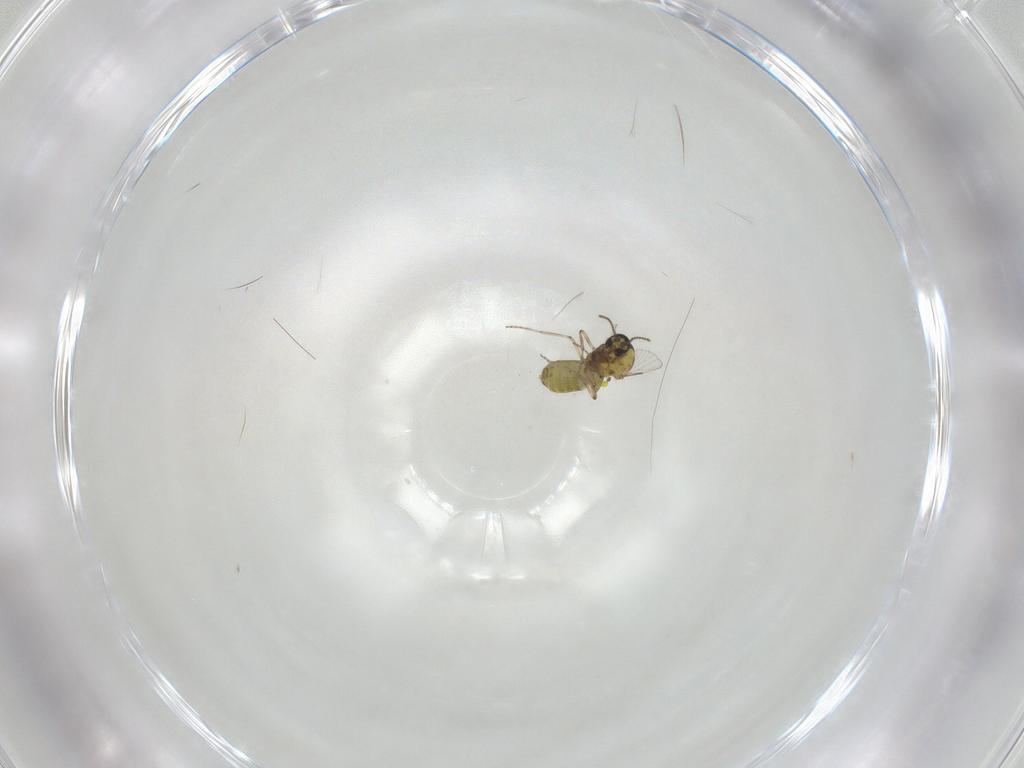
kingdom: Animalia
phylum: Arthropoda
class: Insecta
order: Diptera
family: Ceratopogonidae
